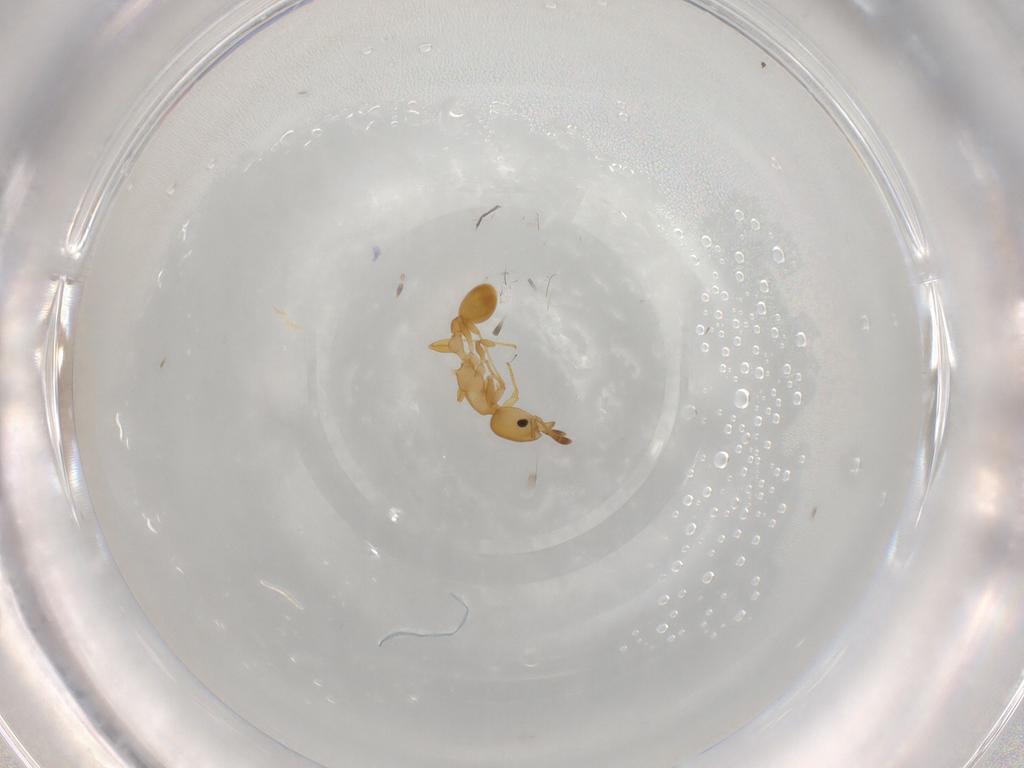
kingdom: Animalia
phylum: Arthropoda
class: Insecta
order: Hymenoptera
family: Formicidae
